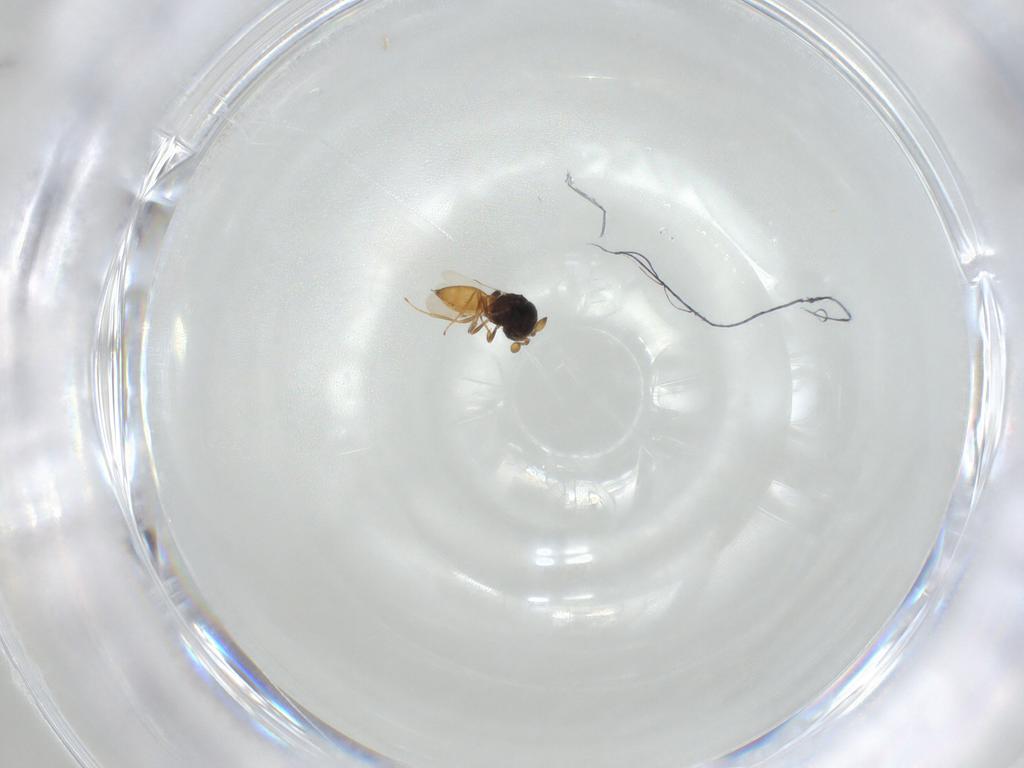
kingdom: Animalia
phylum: Arthropoda
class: Insecta
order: Hymenoptera
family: Scelionidae
